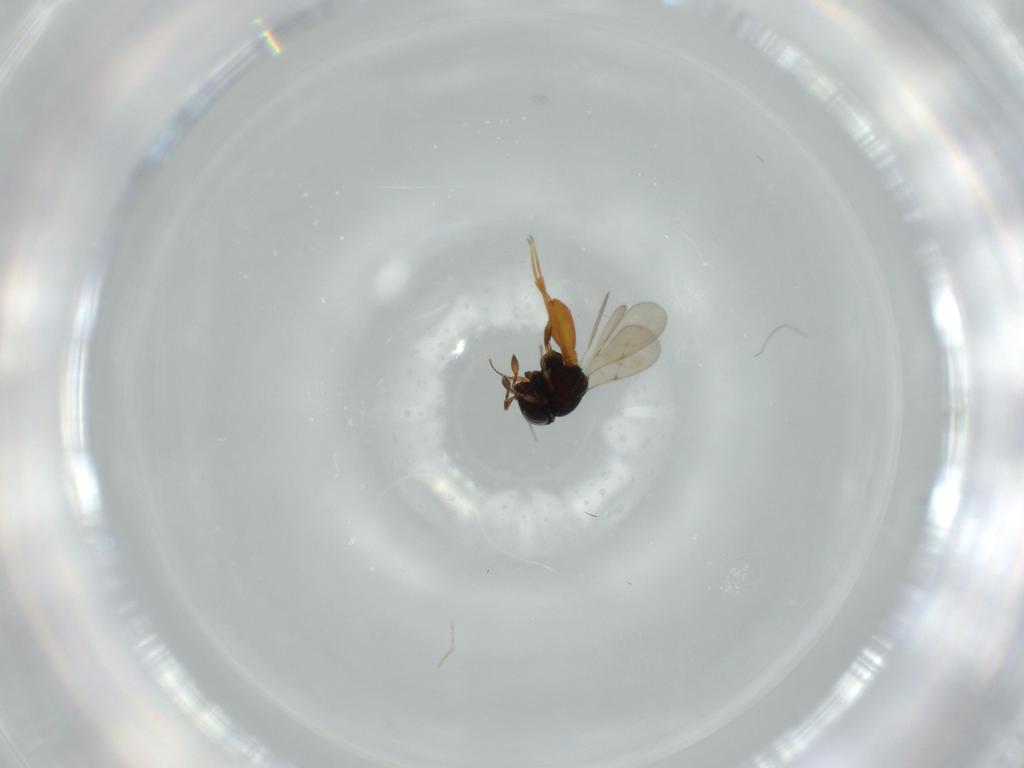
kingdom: Animalia
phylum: Arthropoda
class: Insecta
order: Hymenoptera
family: Scelionidae
